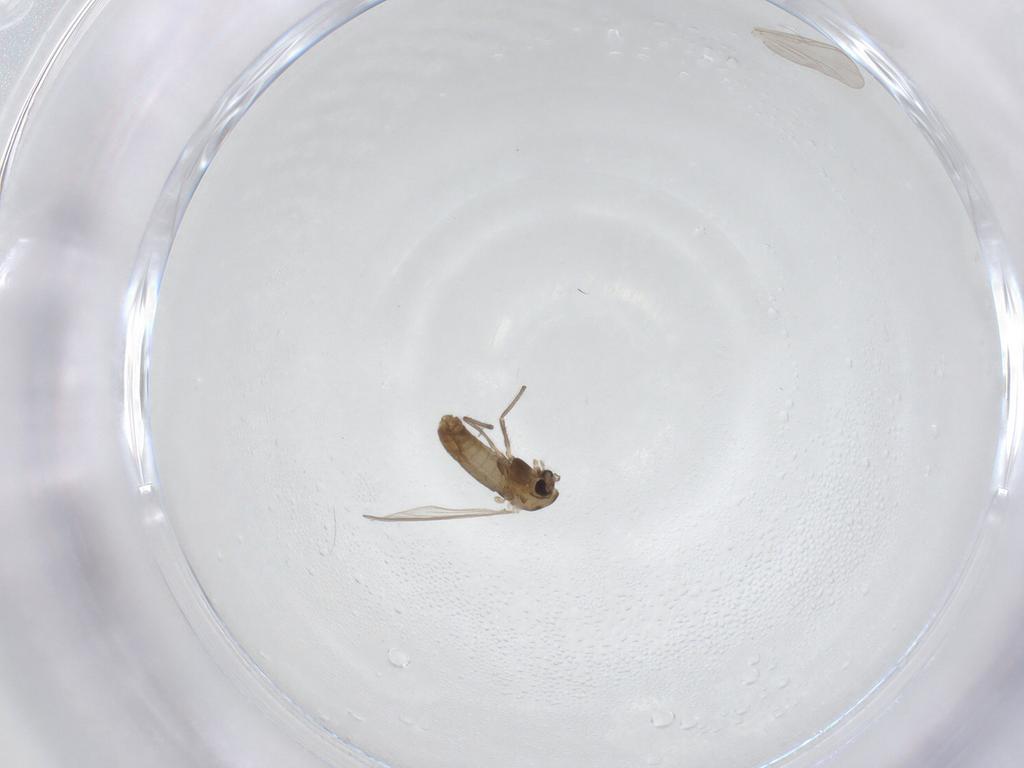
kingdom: Animalia
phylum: Arthropoda
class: Insecta
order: Diptera
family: Chironomidae
